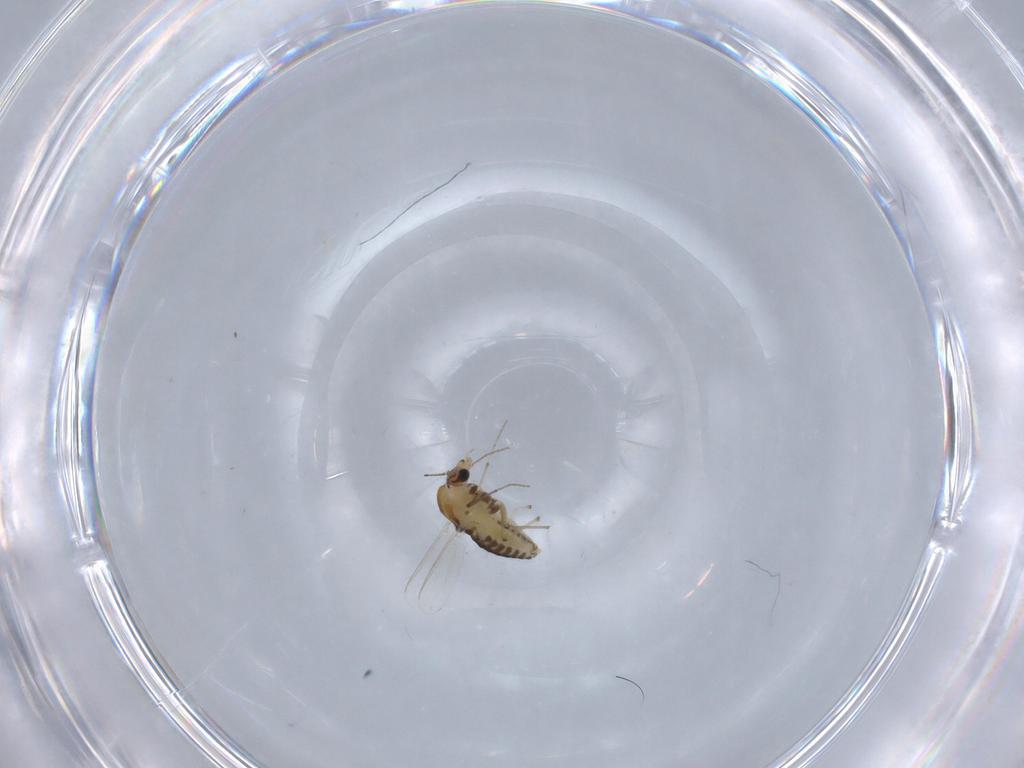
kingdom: Animalia
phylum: Arthropoda
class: Insecta
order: Diptera
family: Chironomidae
